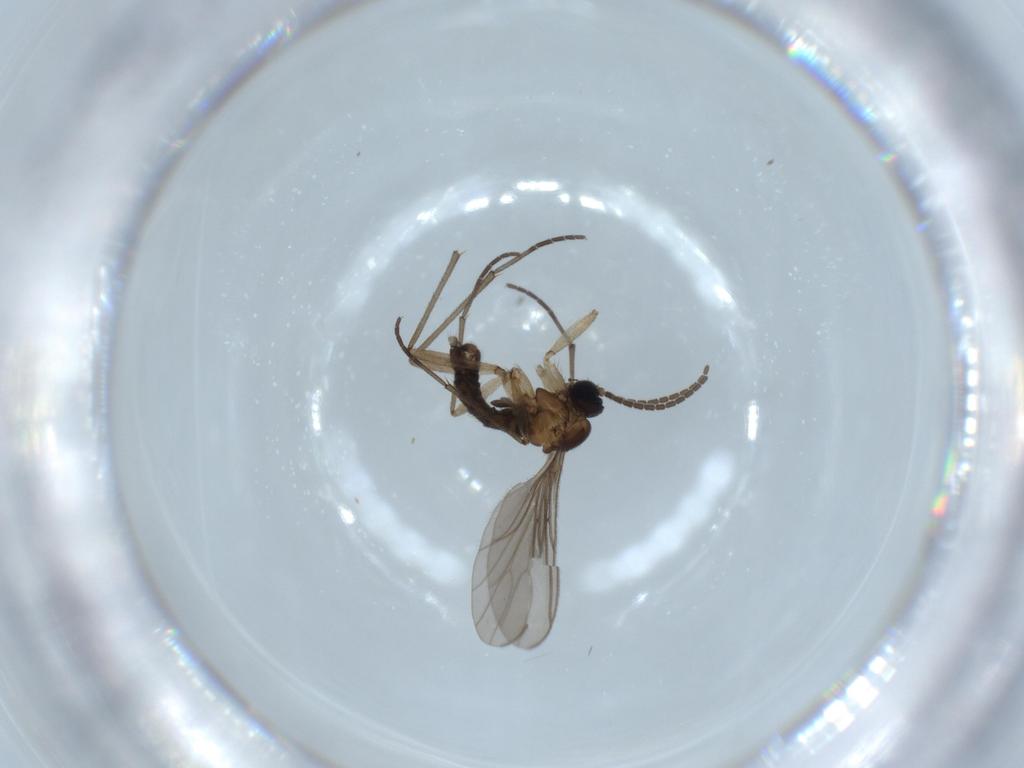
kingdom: Animalia
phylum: Arthropoda
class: Insecta
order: Diptera
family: Sciaridae
